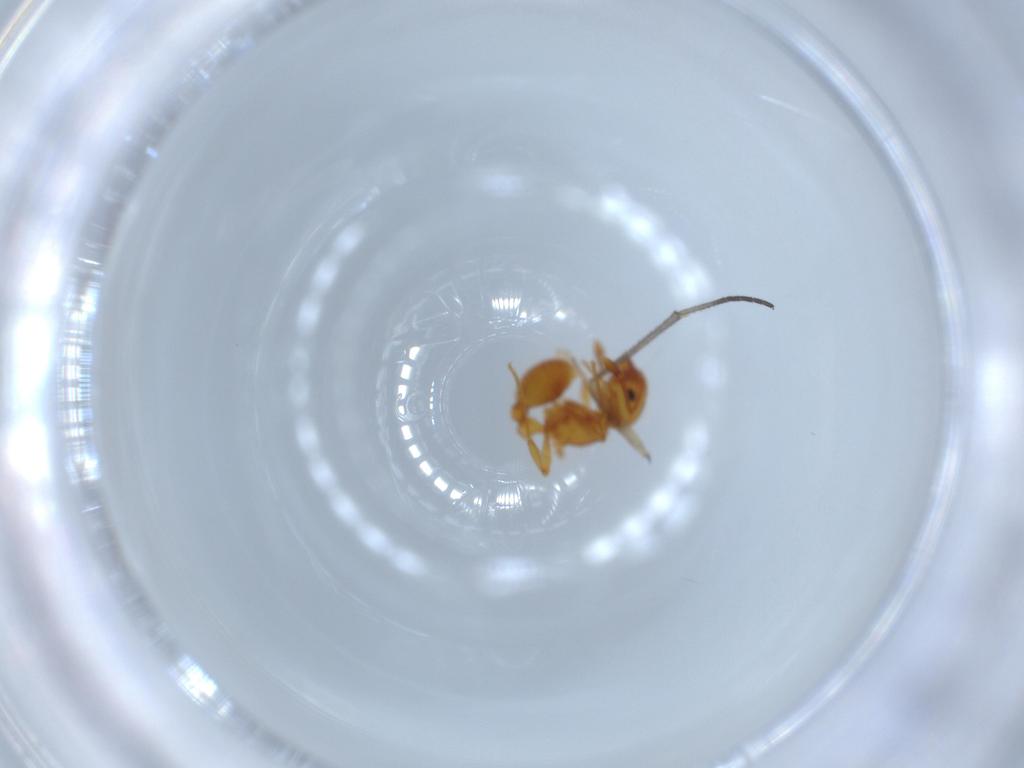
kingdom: Animalia
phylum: Arthropoda
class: Insecta
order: Hymenoptera
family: Formicidae
